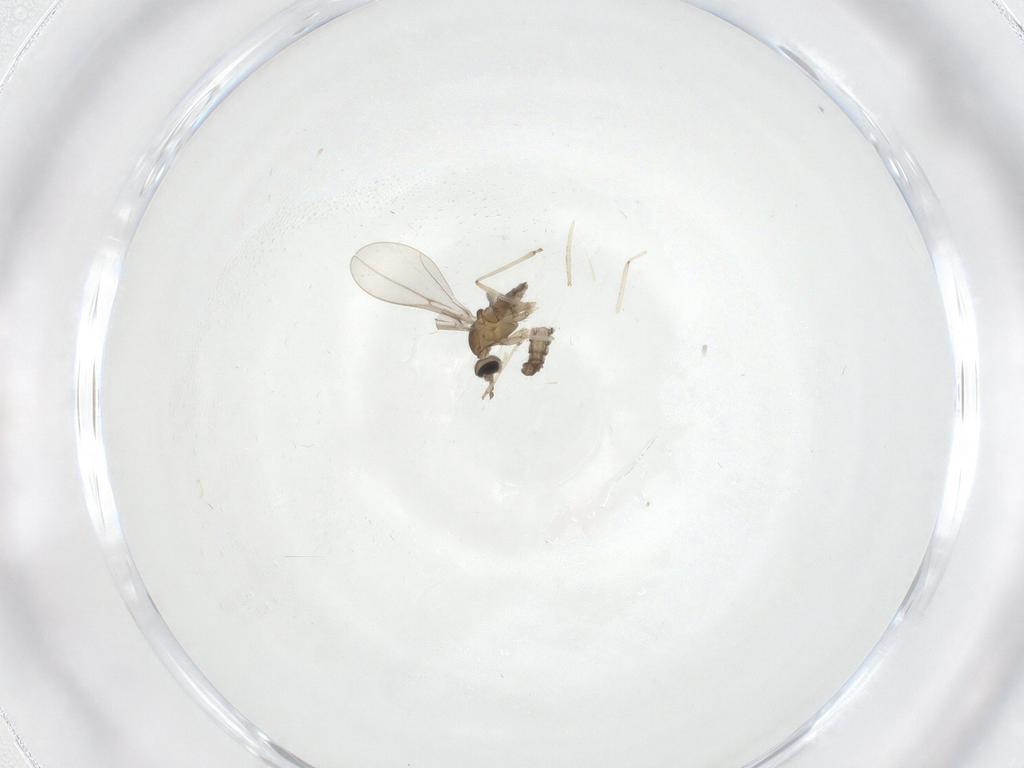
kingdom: Animalia
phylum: Arthropoda
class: Insecta
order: Diptera
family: Cecidomyiidae
